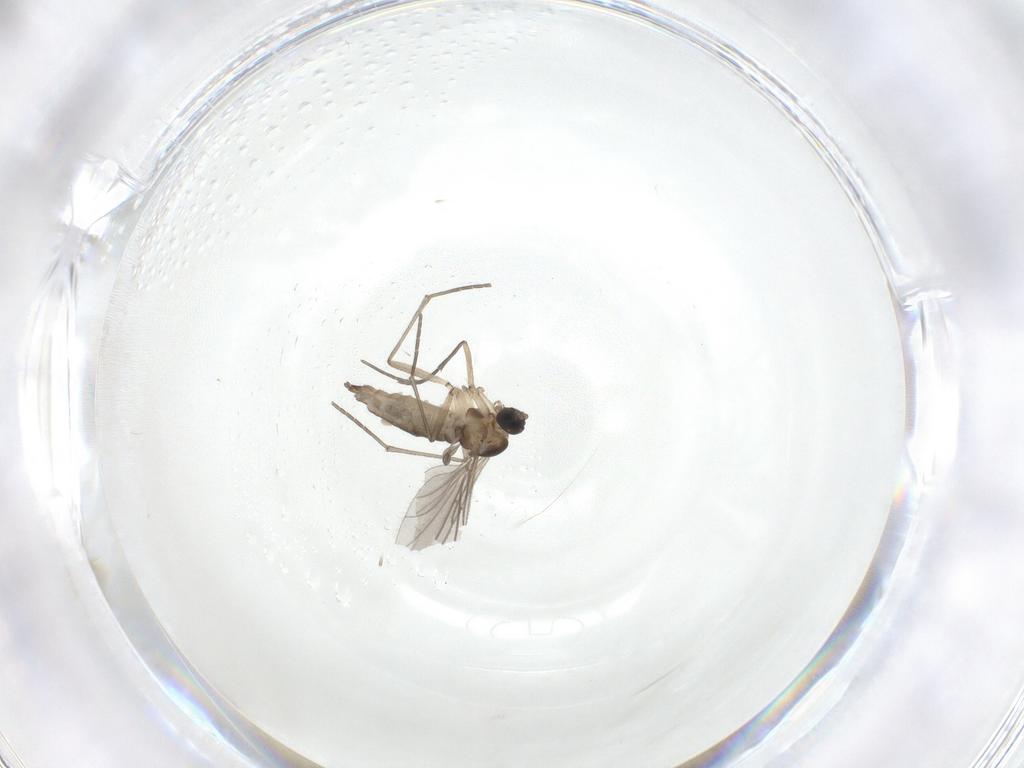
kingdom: Animalia
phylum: Arthropoda
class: Insecta
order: Diptera
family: Sciaridae
